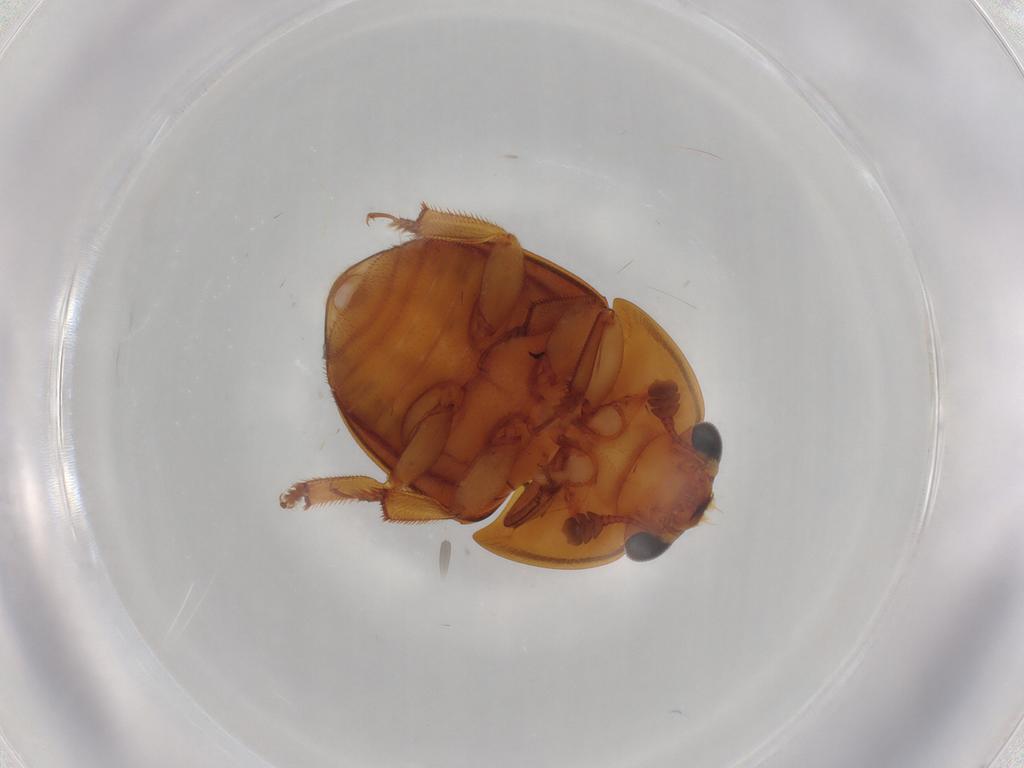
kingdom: Animalia
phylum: Arthropoda
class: Insecta
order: Coleoptera
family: Nitidulidae
